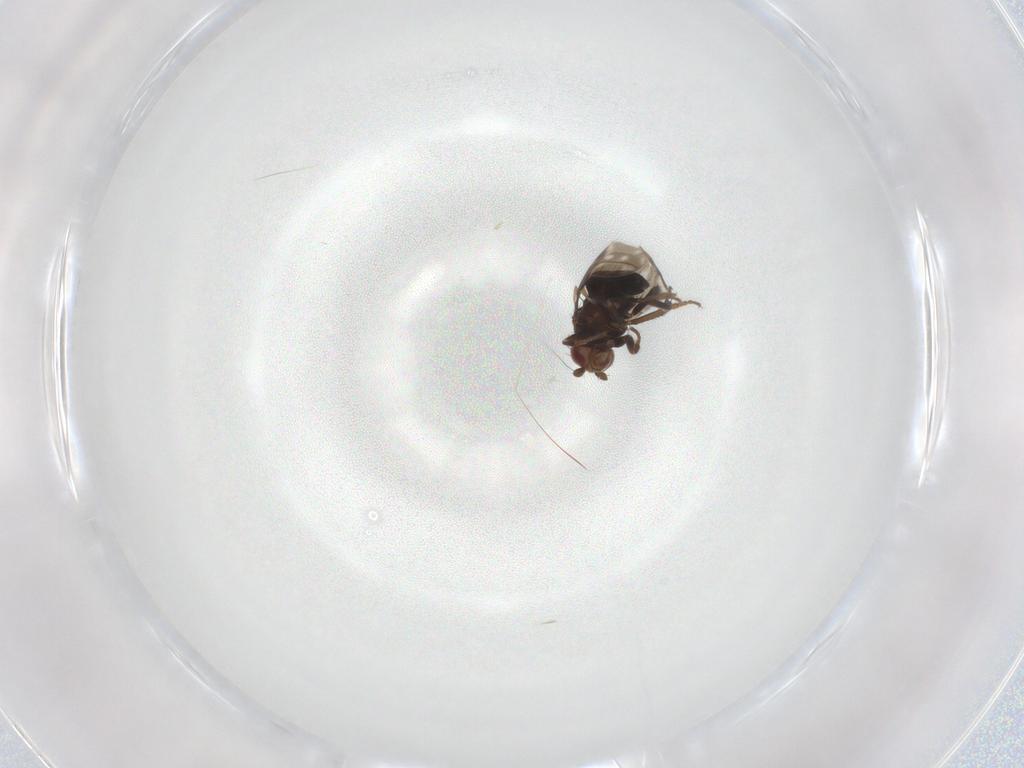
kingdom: Animalia
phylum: Arthropoda
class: Insecta
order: Diptera
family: Sphaeroceridae
